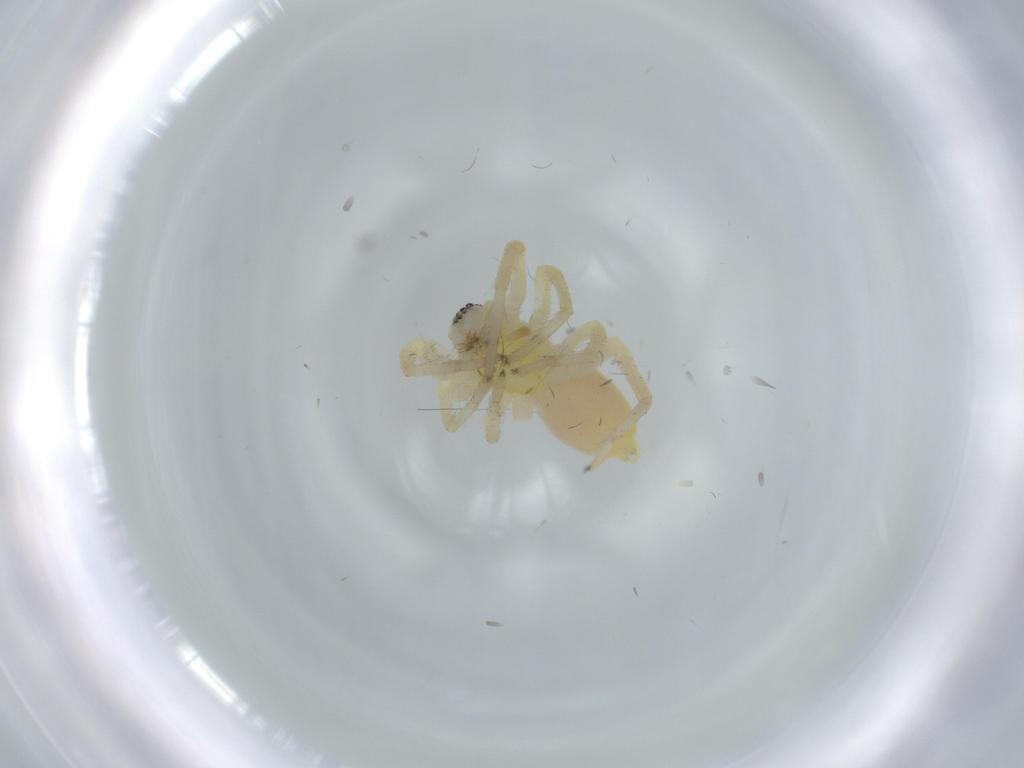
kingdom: Animalia
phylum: Arthropoda
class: Arachnida
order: Araneae
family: Anyphaenidae
